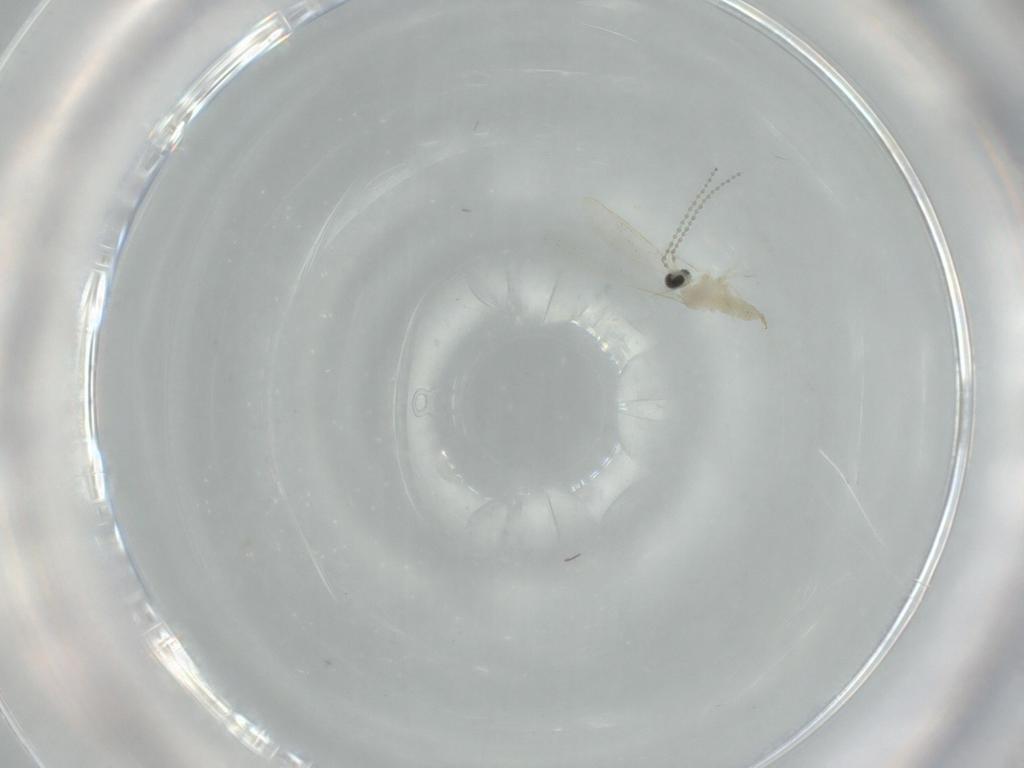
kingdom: Animalia
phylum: Arthropoda
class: Insecta
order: Diptera
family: Cecidomyiidae
